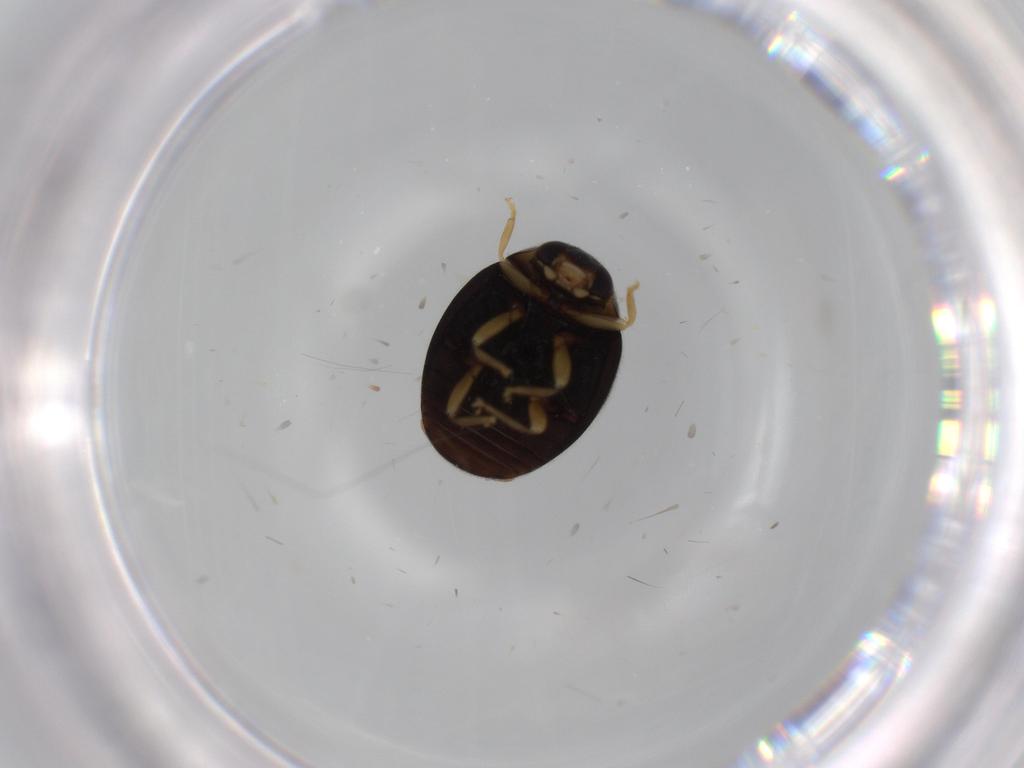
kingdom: Animalia
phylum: Arthropoda
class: Insecta
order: Coleoptera
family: Coccinellidae
